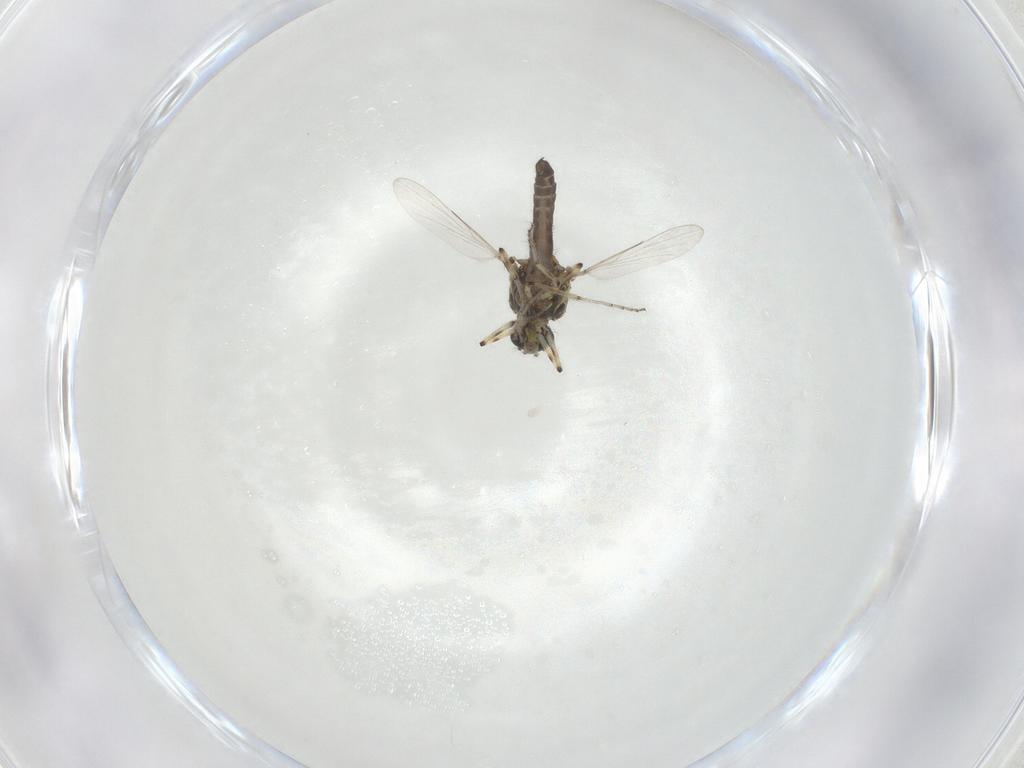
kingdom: Animalia
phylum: Arthropoda
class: Insecta
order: Diptera
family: Ceratopogonidae
